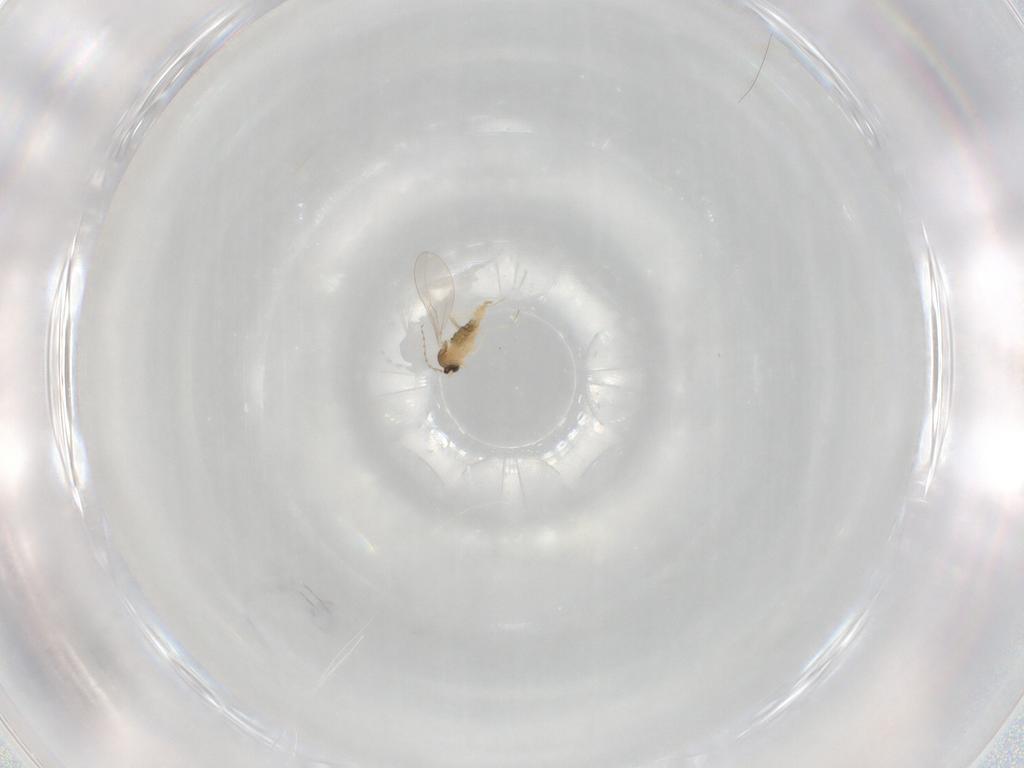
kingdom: Animalia
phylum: Arthropoda
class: Insecta
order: Diptera
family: Cecidomyiidae
